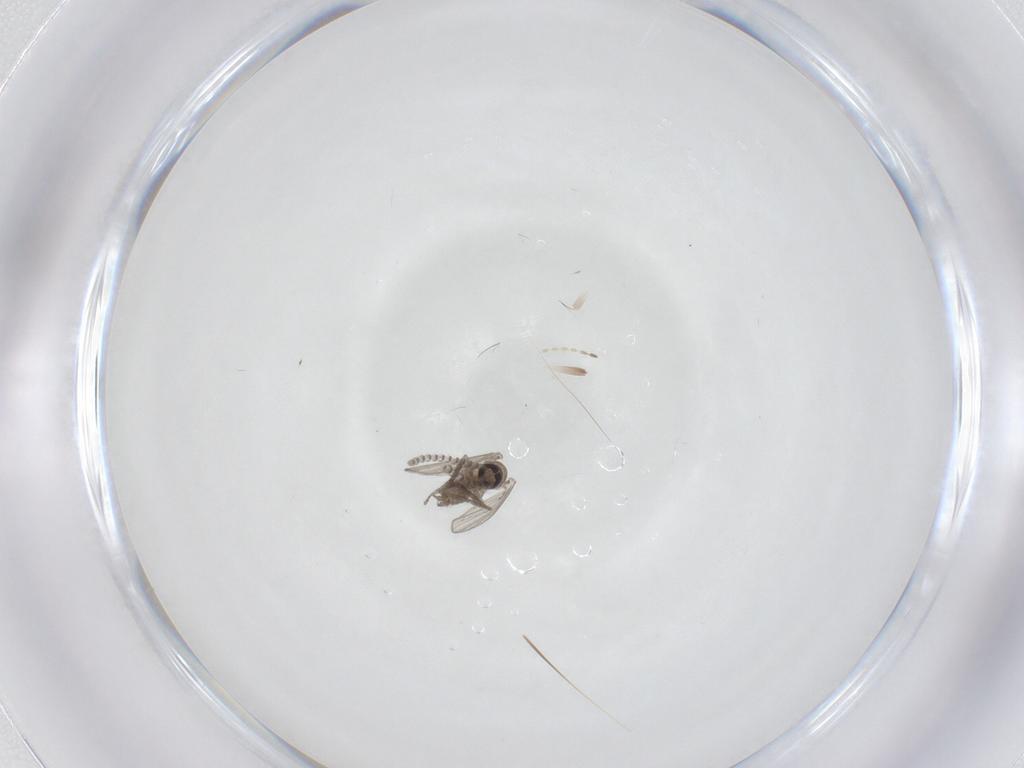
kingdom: Animalia
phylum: Arthropoda
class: Insecta
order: Diptera
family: Psychodidae
